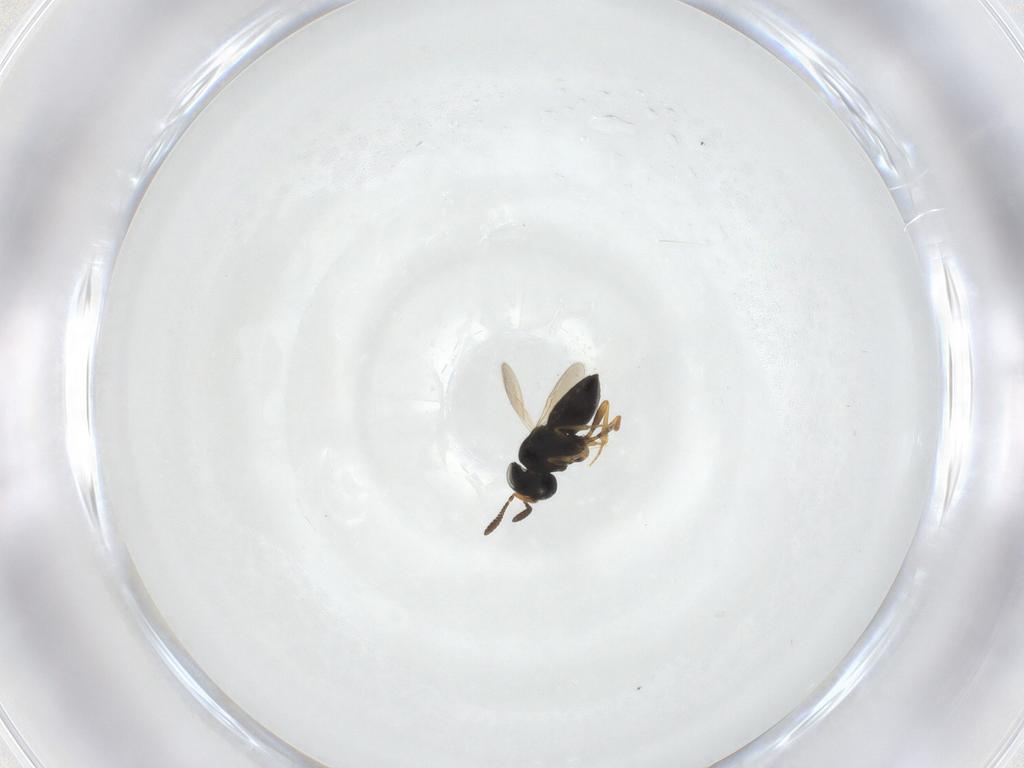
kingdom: Animalia
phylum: Arthropoda
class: Insecta
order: Hymenoptera
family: Scelionidae
